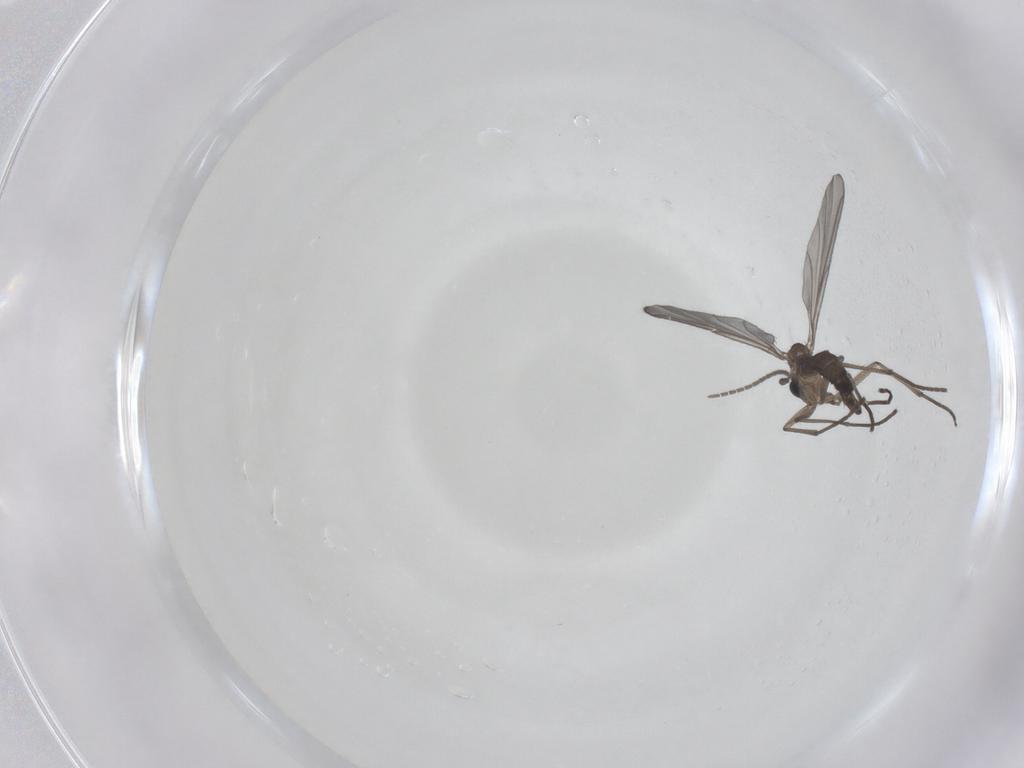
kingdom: Animalia
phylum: Arthropoda
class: Insecta
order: Diptera
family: Sciaridae
